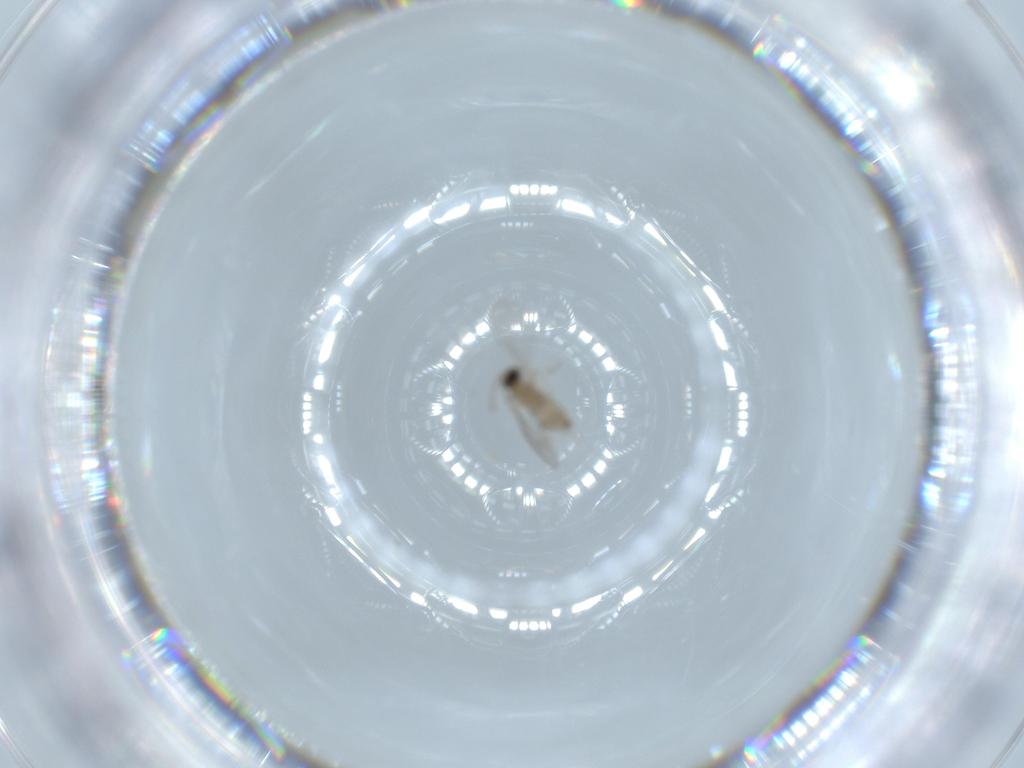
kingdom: Animalia
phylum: Arthropoda
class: Insecta
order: Diptera
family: Cecidomyiidae
